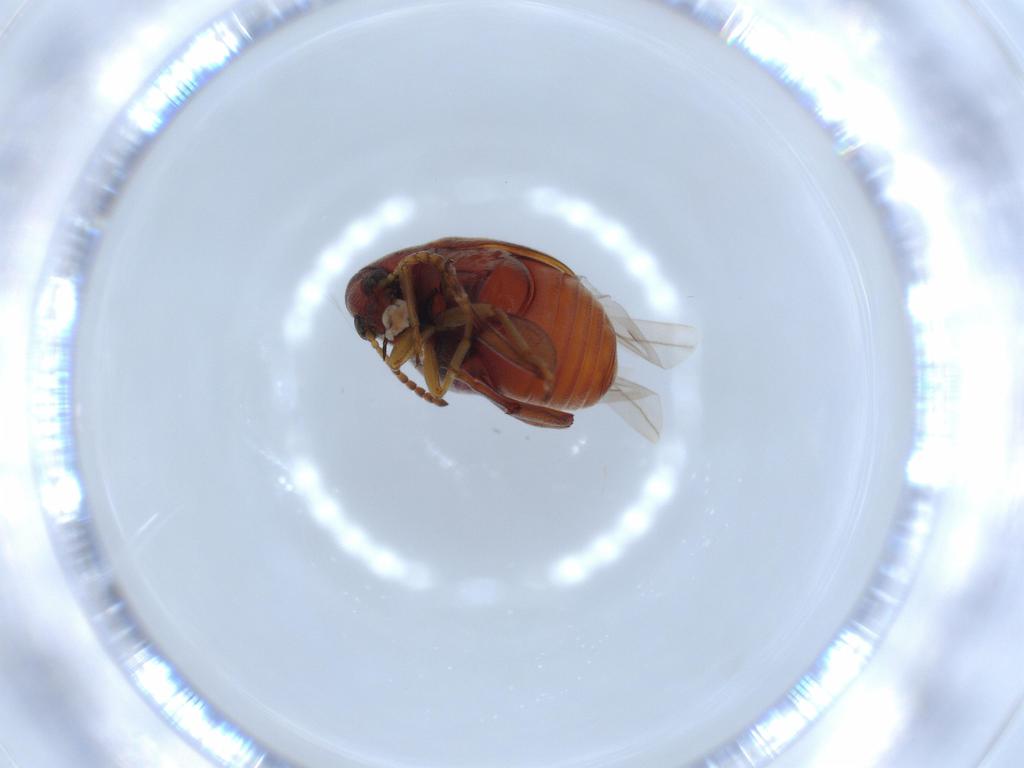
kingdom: Animalia
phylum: Arthropoda
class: Insecta
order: Coleoptera
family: Chrysomelidae
